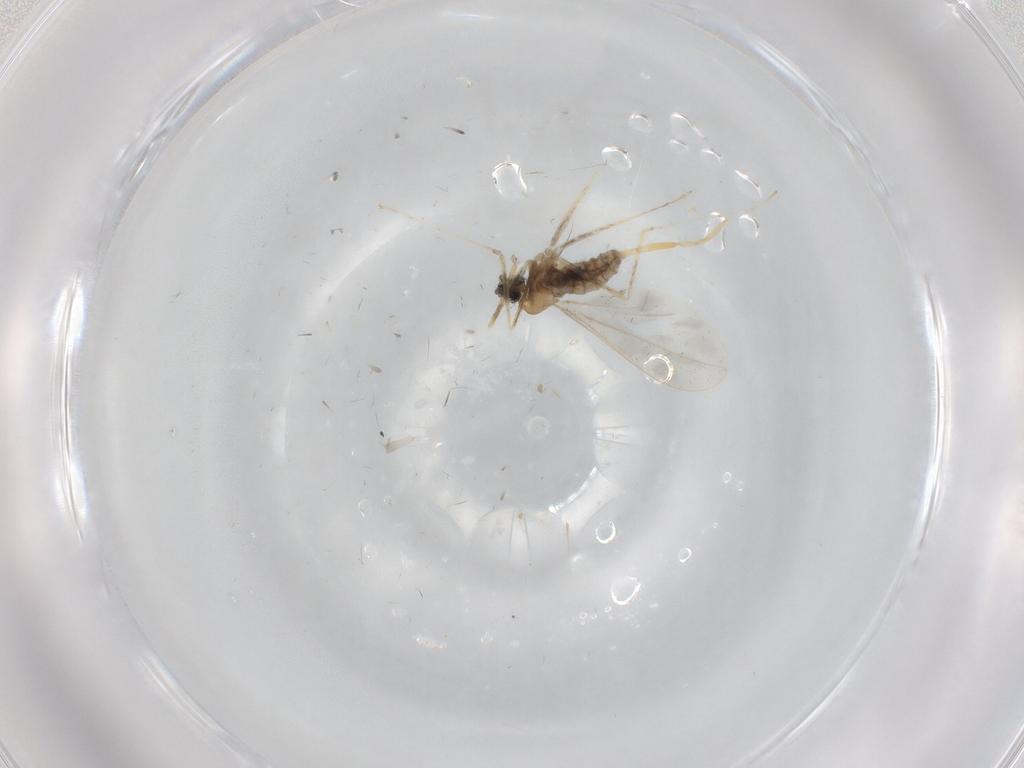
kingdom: Animalia
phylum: Arthropoda
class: Insecta
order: Diptera
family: Cecidomyiidae
